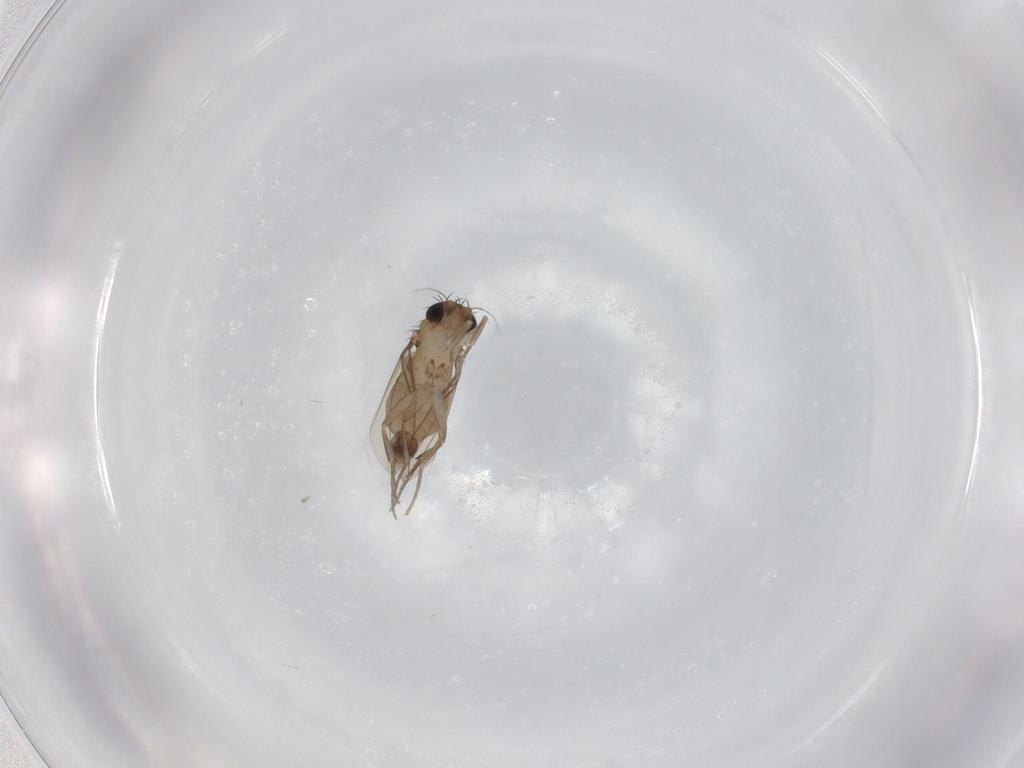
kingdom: Animalia
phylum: Arthropoda
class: Insecta
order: Diptera
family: Phoridae
